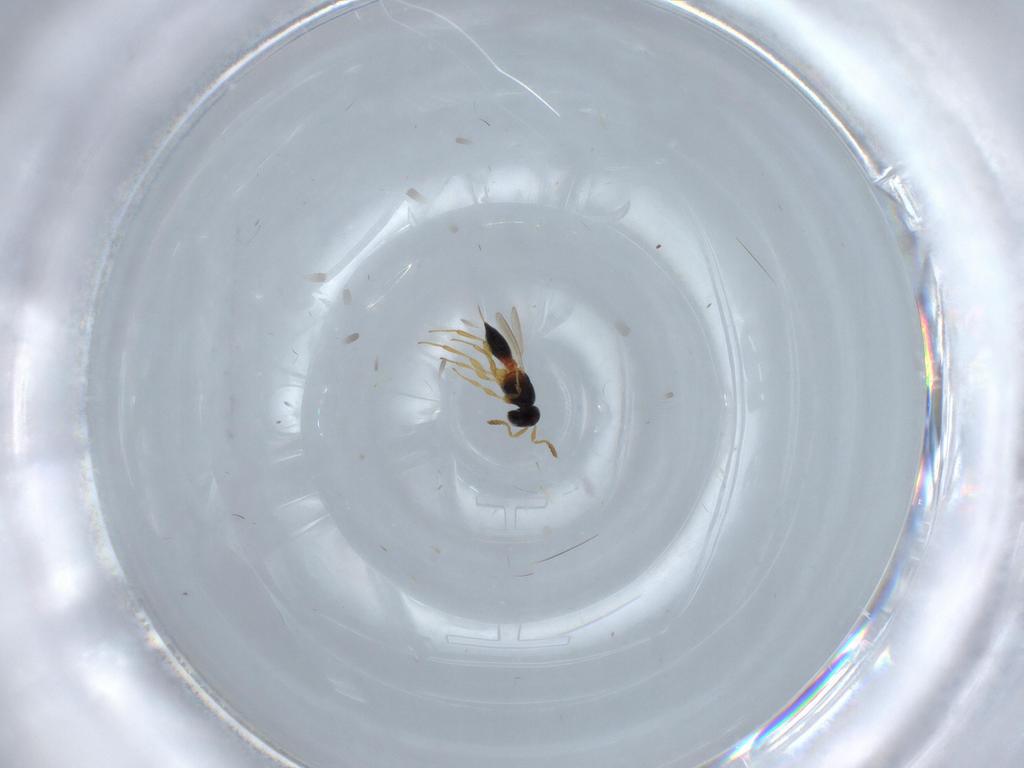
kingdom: Animalia
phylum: Arthropoda
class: Insecta
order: Hymenoptera
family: Platygastridae
